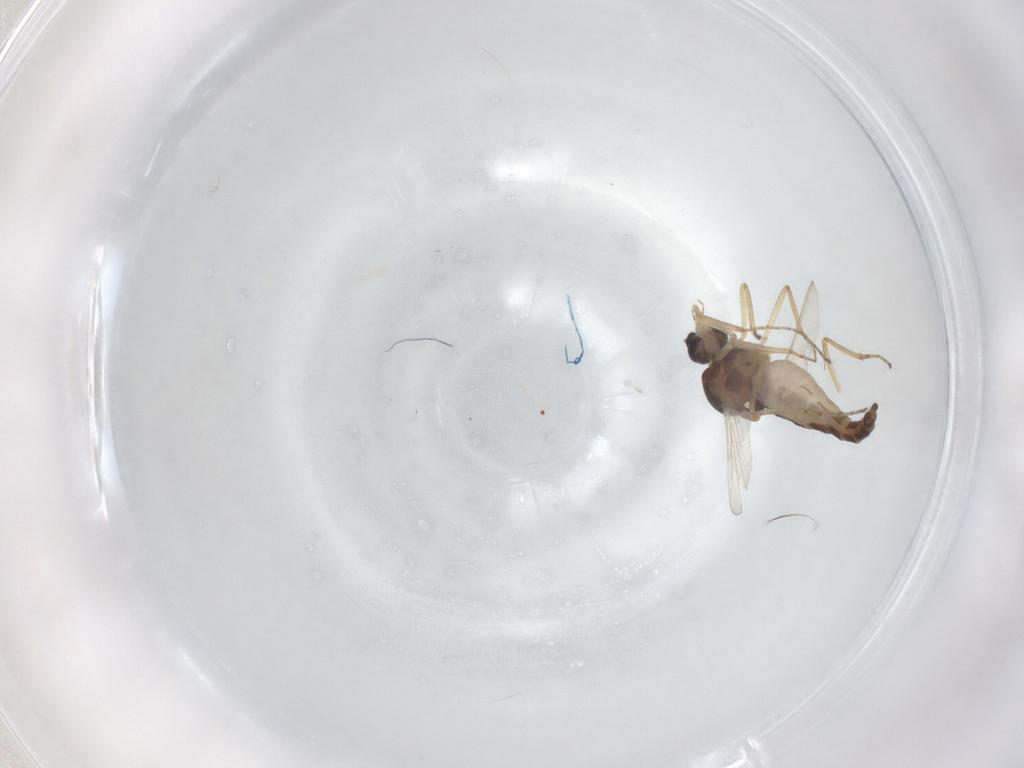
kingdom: Animalia
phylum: Arthropoda
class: Insecta
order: Diptera
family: Ceratopogonidae
